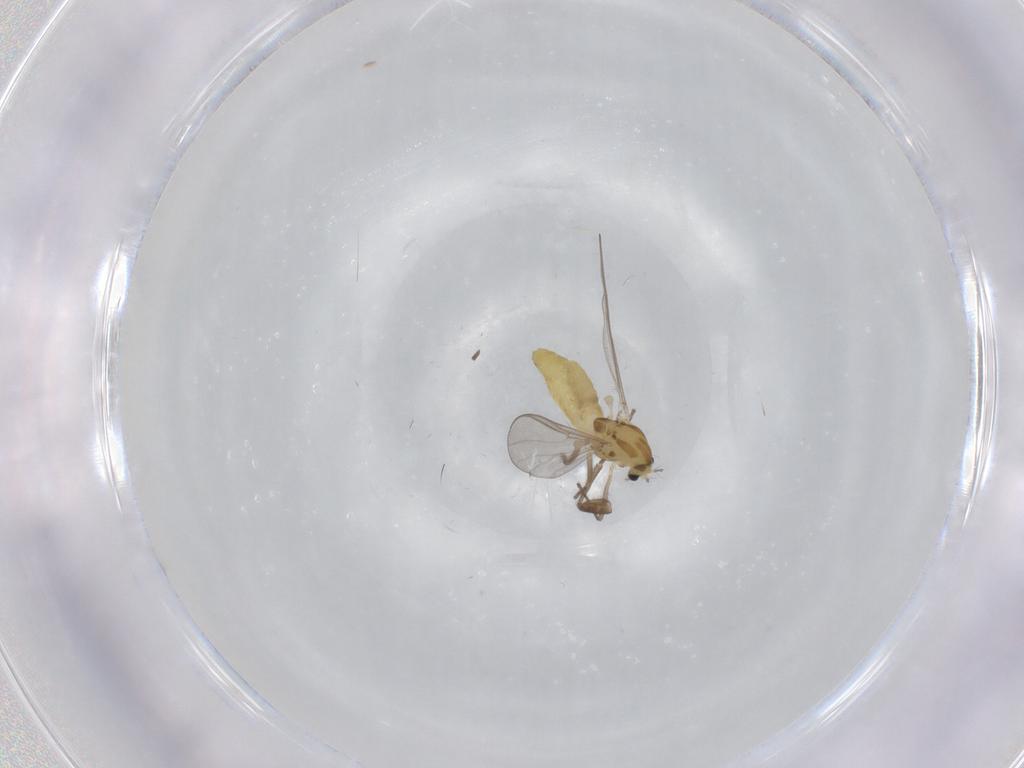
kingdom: Animalia
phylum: Arthropoda
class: Insecta
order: Diptera
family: Chironomidae
